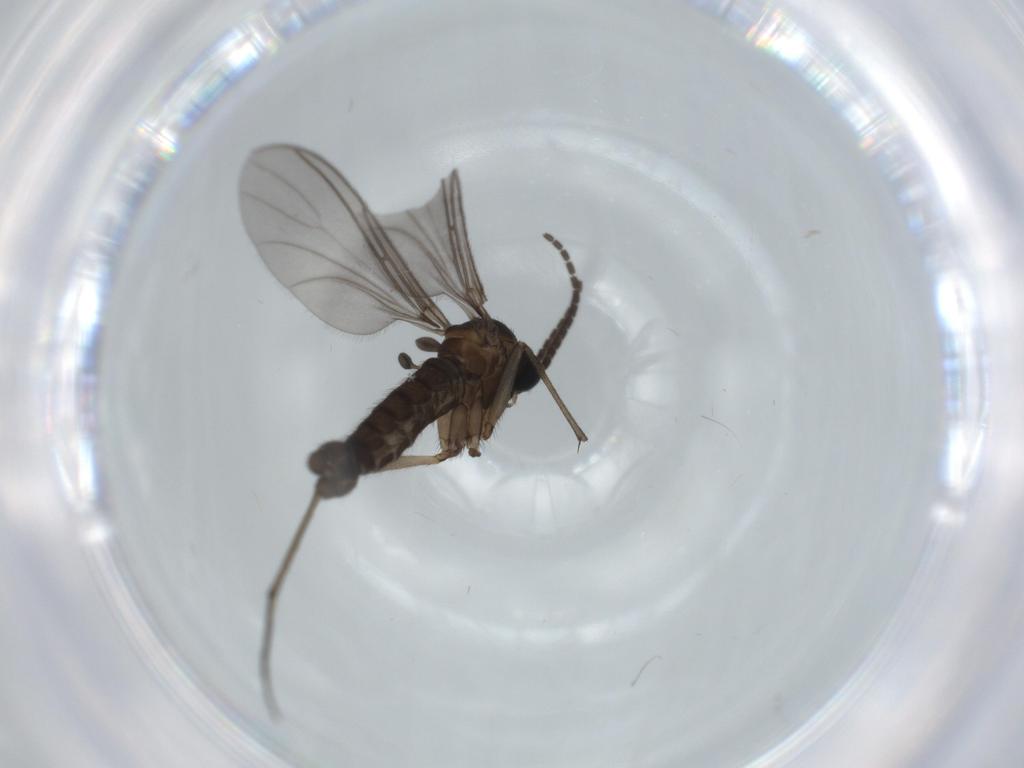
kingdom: Animalia
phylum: Arthropoda
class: Insecta
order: Diptera
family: Sciaridae
